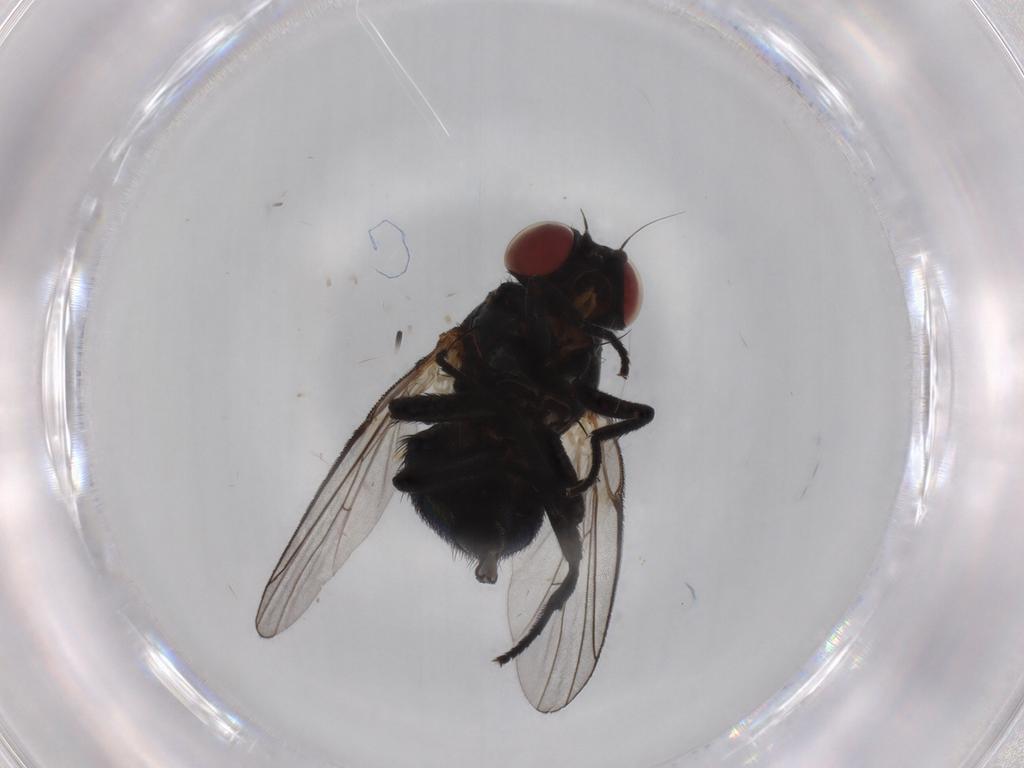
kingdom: Animalia
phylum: Arthropoda
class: Insecta
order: Diptera
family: Agromyzidae
